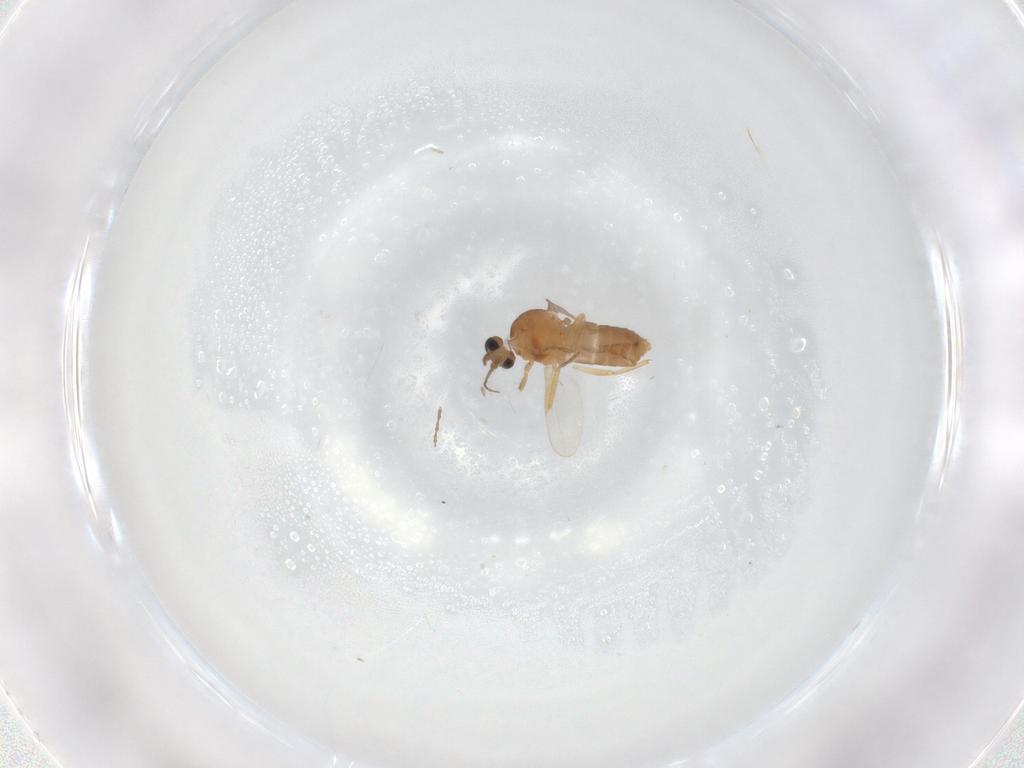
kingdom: Animalia
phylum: Arthropoda
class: Insecta
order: Diptera
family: Ceratopogonidae
